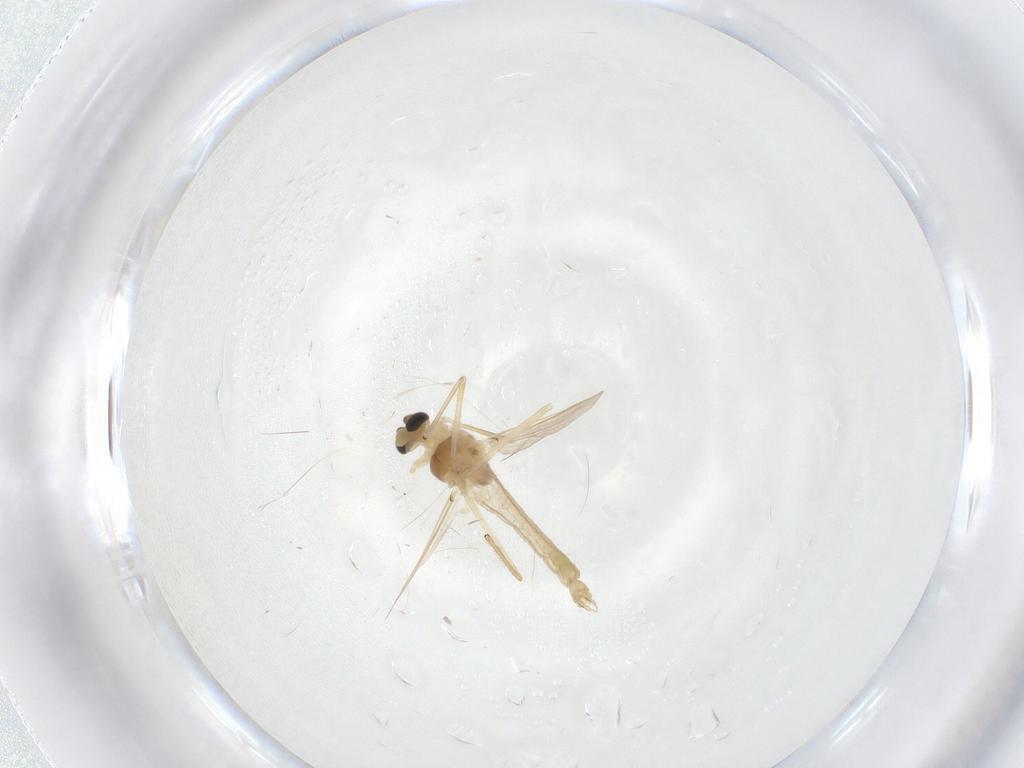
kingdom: Animalia
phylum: Arthropoda
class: Insecta
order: Diptera
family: Chironomidae
